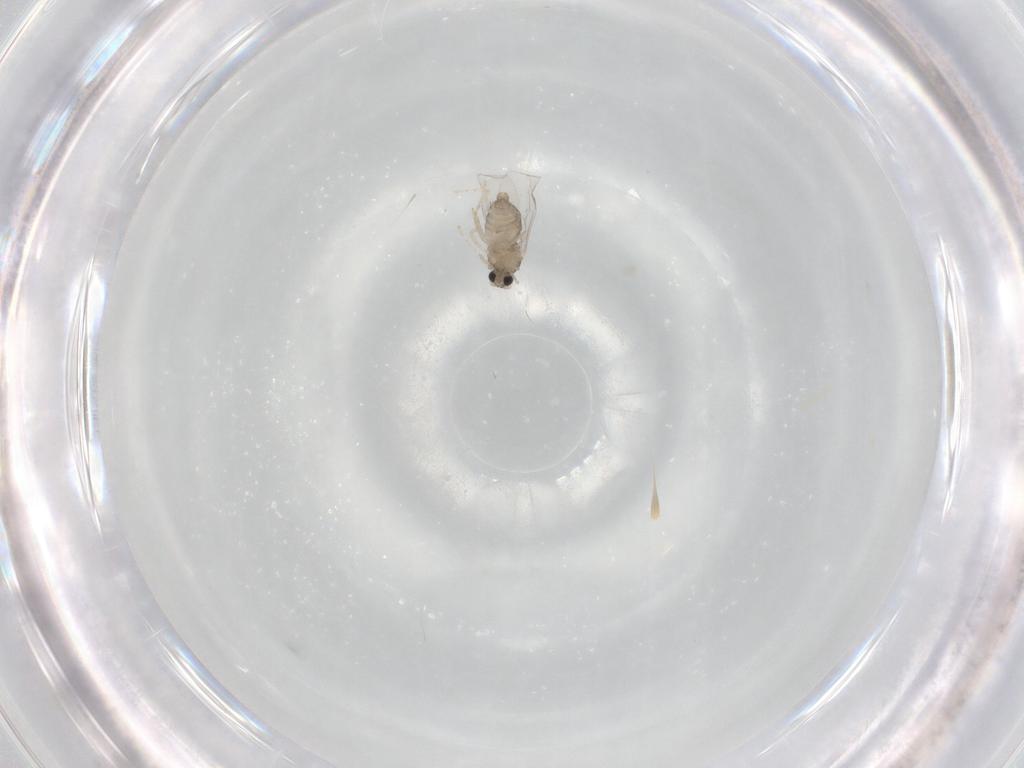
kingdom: Animalia
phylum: Arthropoda
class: Insecta
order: Diptera
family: Cecidomyiidae
